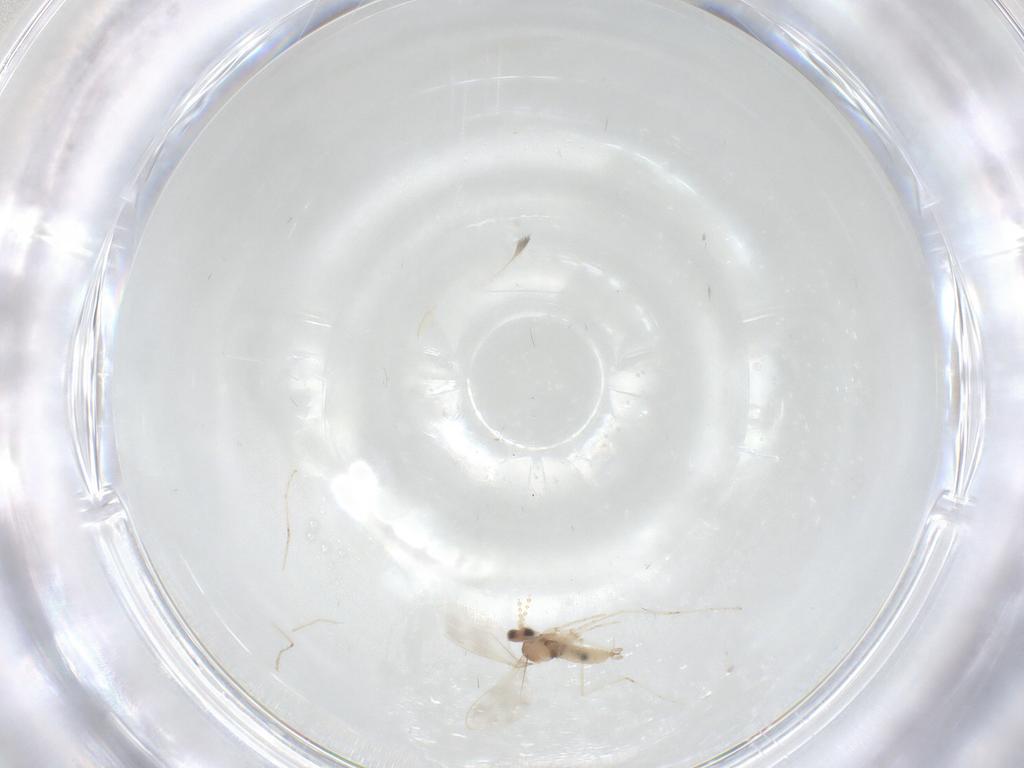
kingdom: Animalia
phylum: Arthropoda
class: Insecta
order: Diptera
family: Cecidomyiidae
